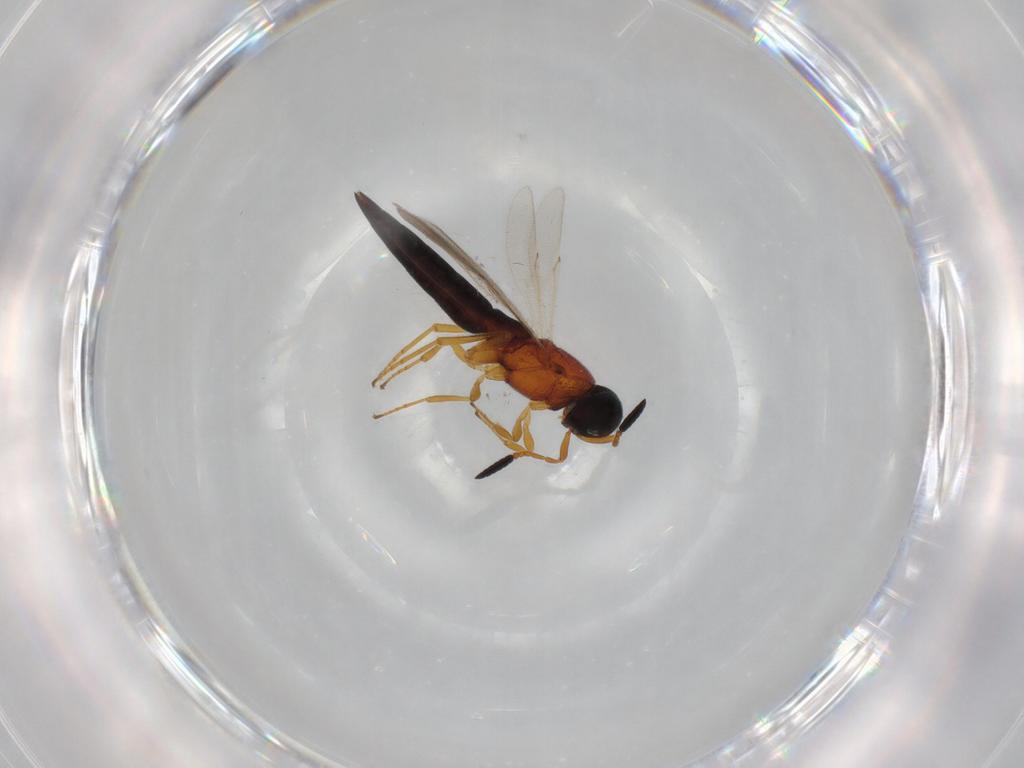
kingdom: Animalia
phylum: Arthropoda
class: Insecta
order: Hymenoptera
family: Scelionidae
